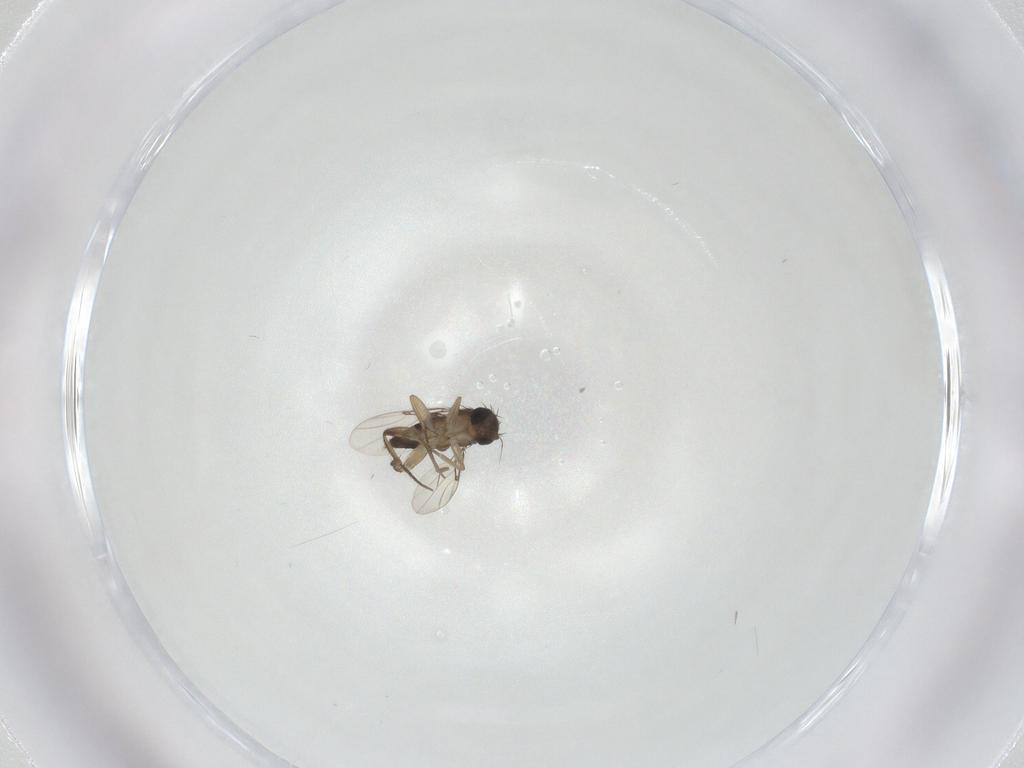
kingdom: Animalia
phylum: Arthropoda
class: Insecta
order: Diptera
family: Phoridae
